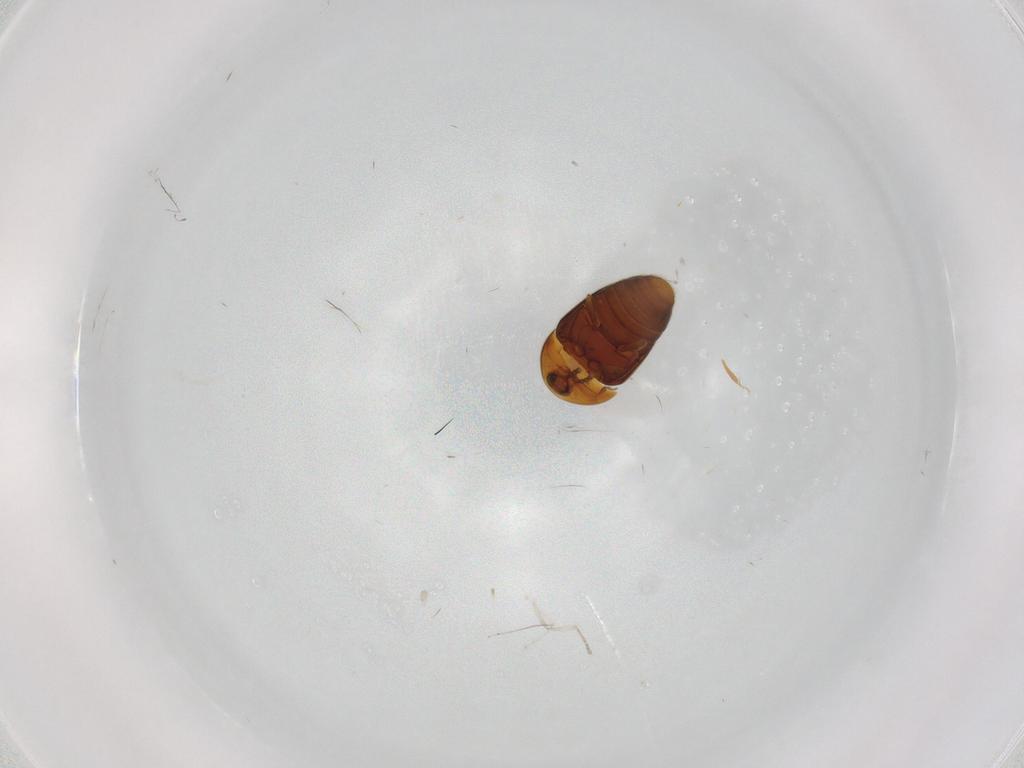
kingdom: Animalia
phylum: Arthropoda
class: Insecta
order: Coleoptera
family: Corylophidae
